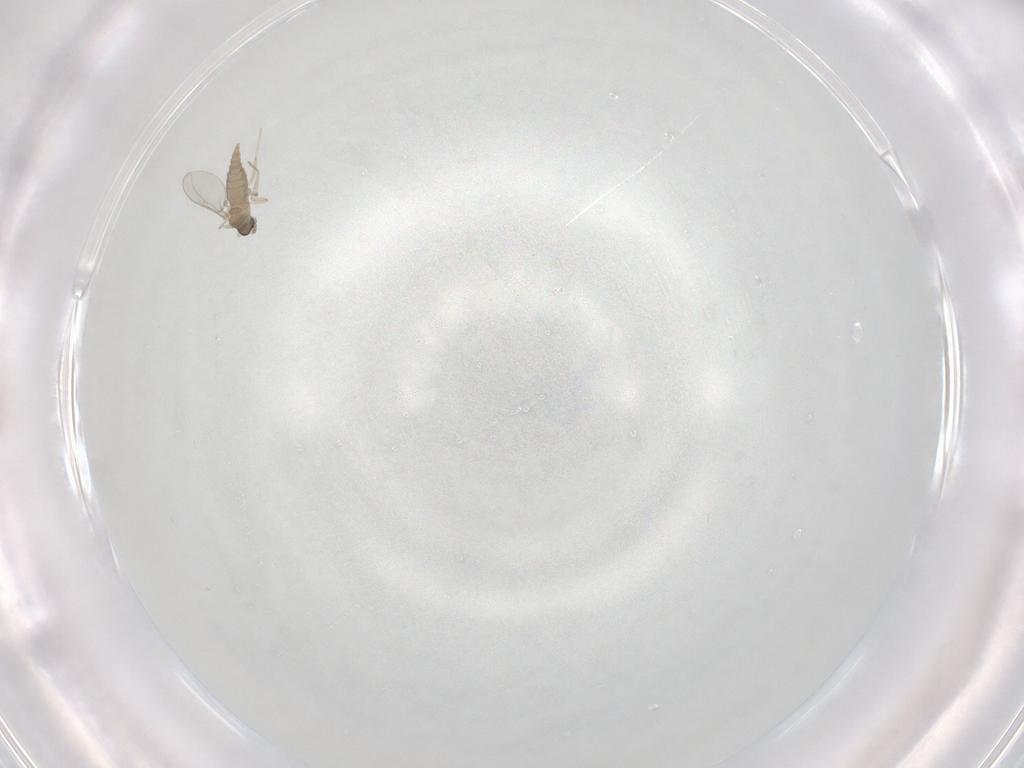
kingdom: Animalia
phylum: Arthropoda
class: Insecta
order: Diptera
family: Cecidomyiidae
